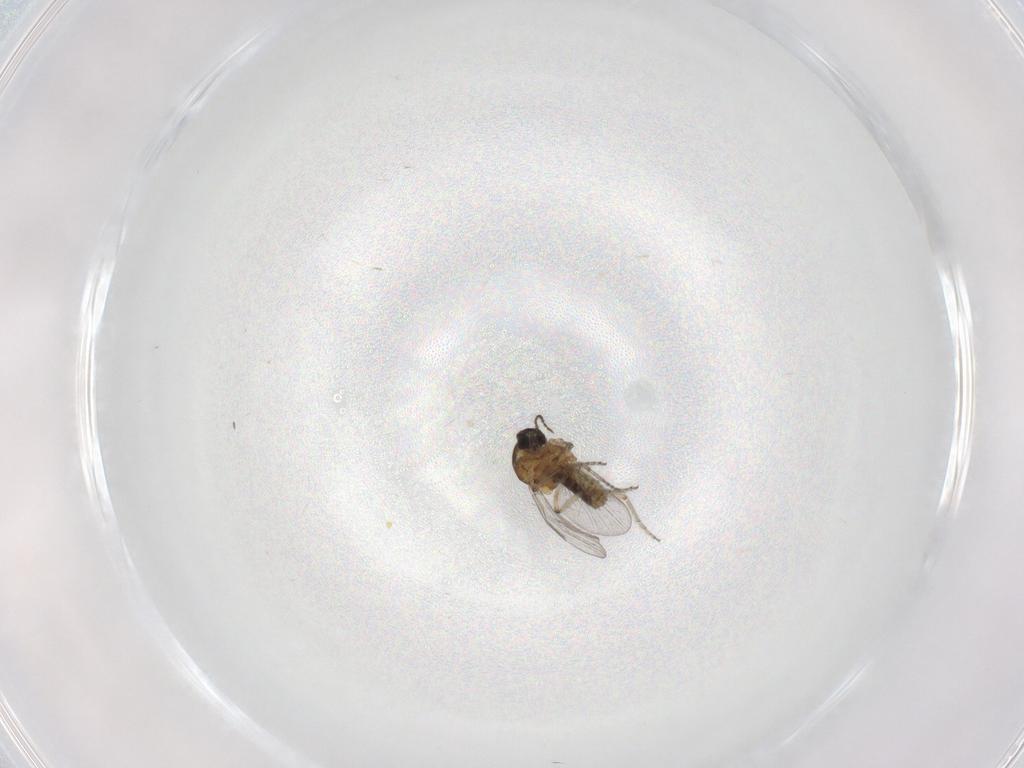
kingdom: Animalia
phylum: Arthropoda
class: Insecta
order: Diptera
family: Ceratopogonidae
